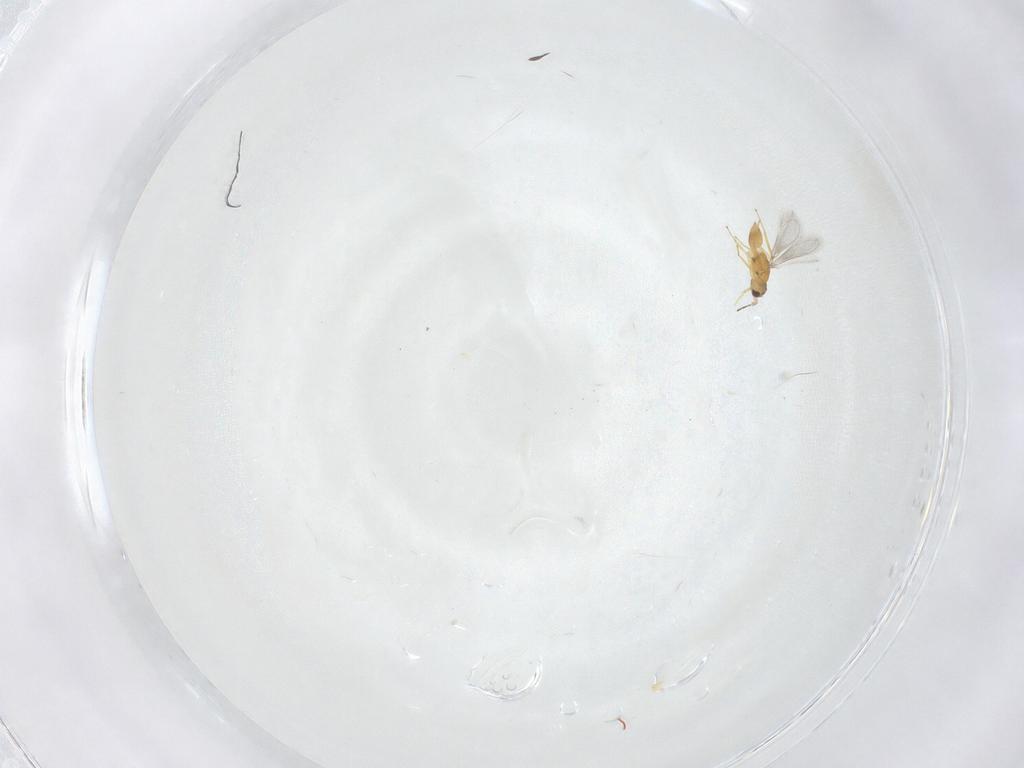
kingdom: Animalia
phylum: Arthropoda
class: Insecta
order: Hymenoptera
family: Mymaridae
